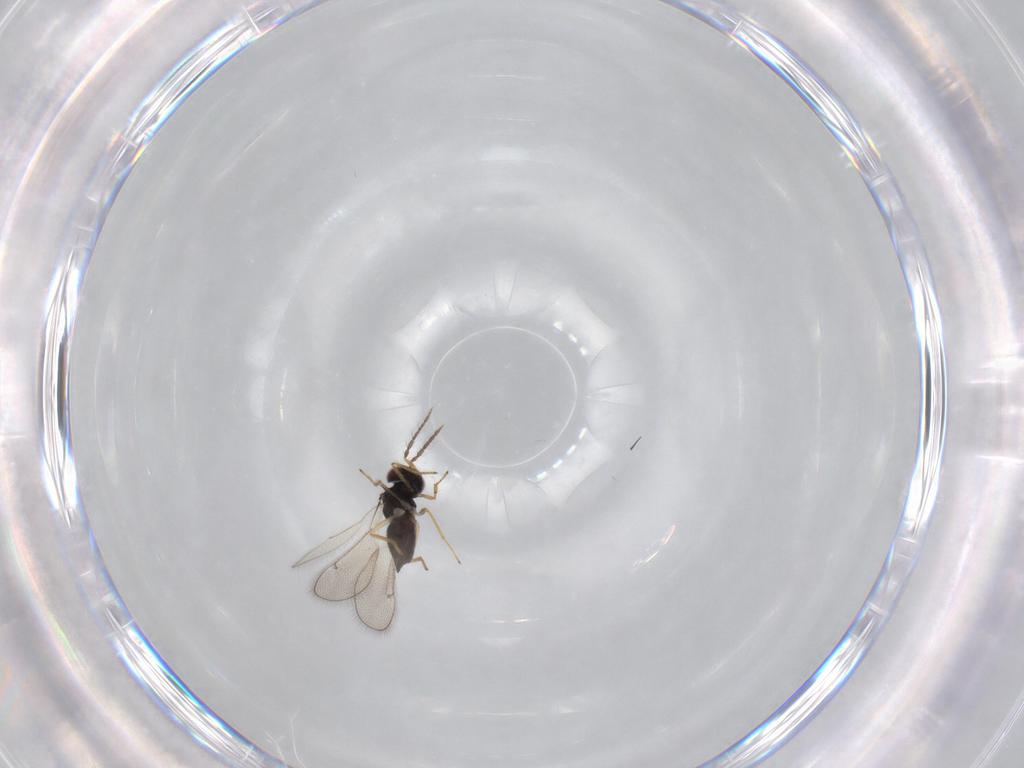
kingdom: Animalia
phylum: Arthropoda
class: Insecta
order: Hymenoptera
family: Eulophidae
